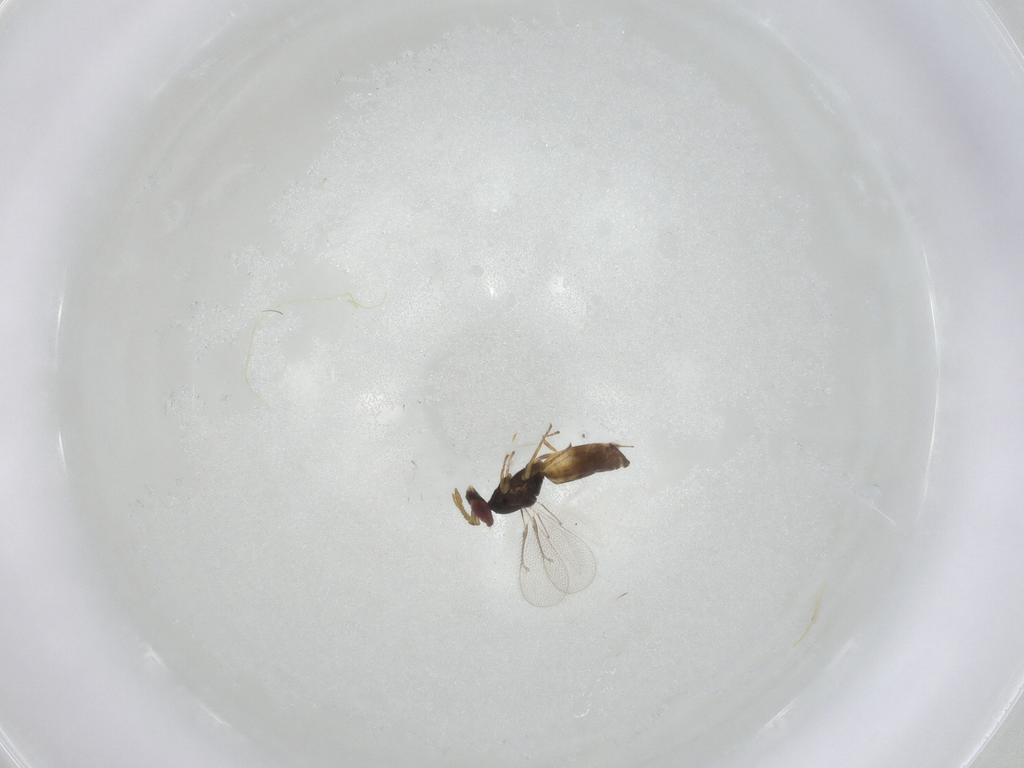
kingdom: Animalia
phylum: Arthropoda
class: Insecta
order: Hymenoptera
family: Eulophidae
